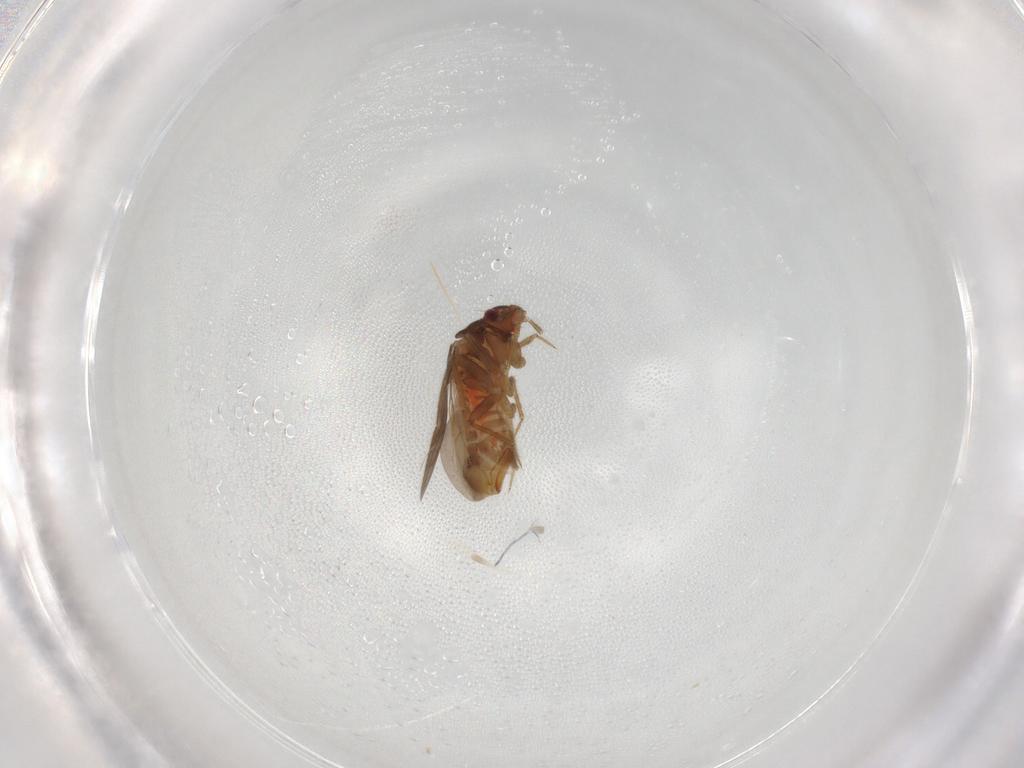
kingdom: Animalia
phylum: Arthropoda
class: Insecta
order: Hemiptera
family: Ceratocombidae
